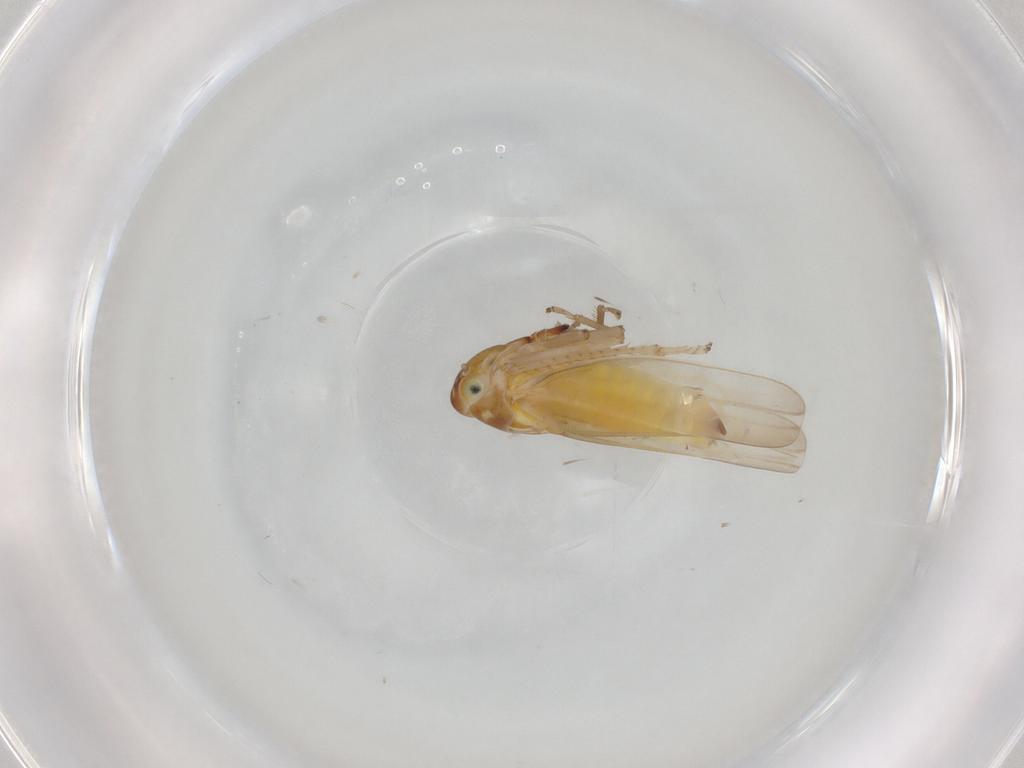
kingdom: Animalia
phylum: Arthropoda
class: Insecta
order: Hemiptera
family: Cicadellidae
